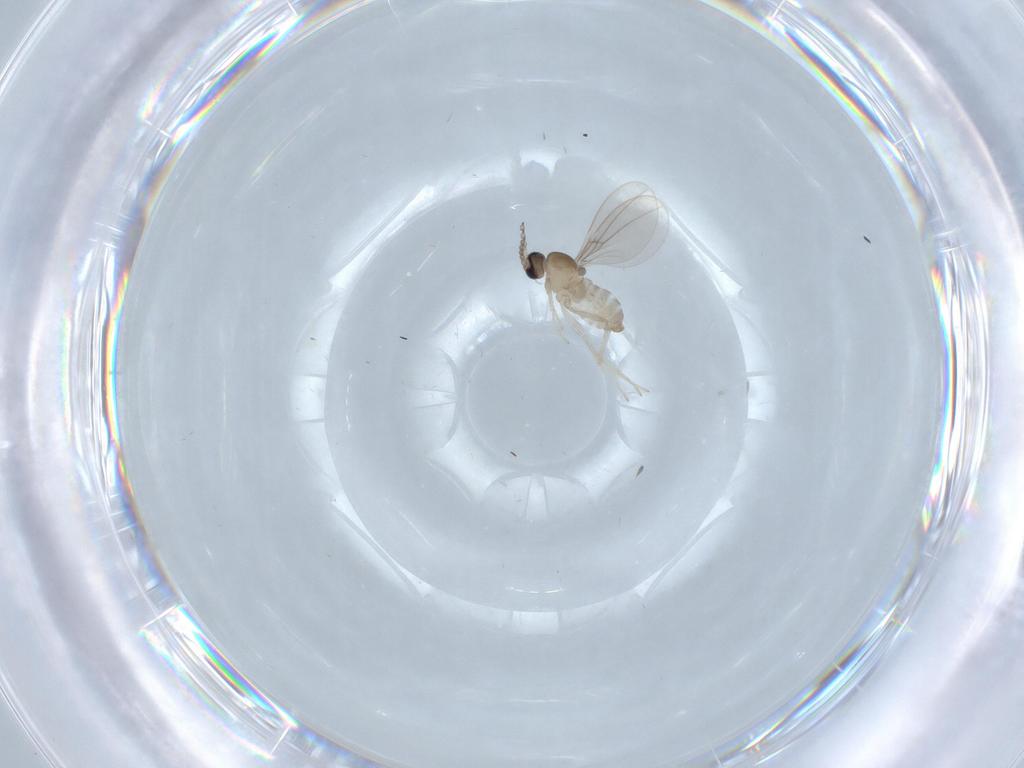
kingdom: Animalia
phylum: Arthropoda
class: Insecta
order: Diptera
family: Cecidomyiidae
